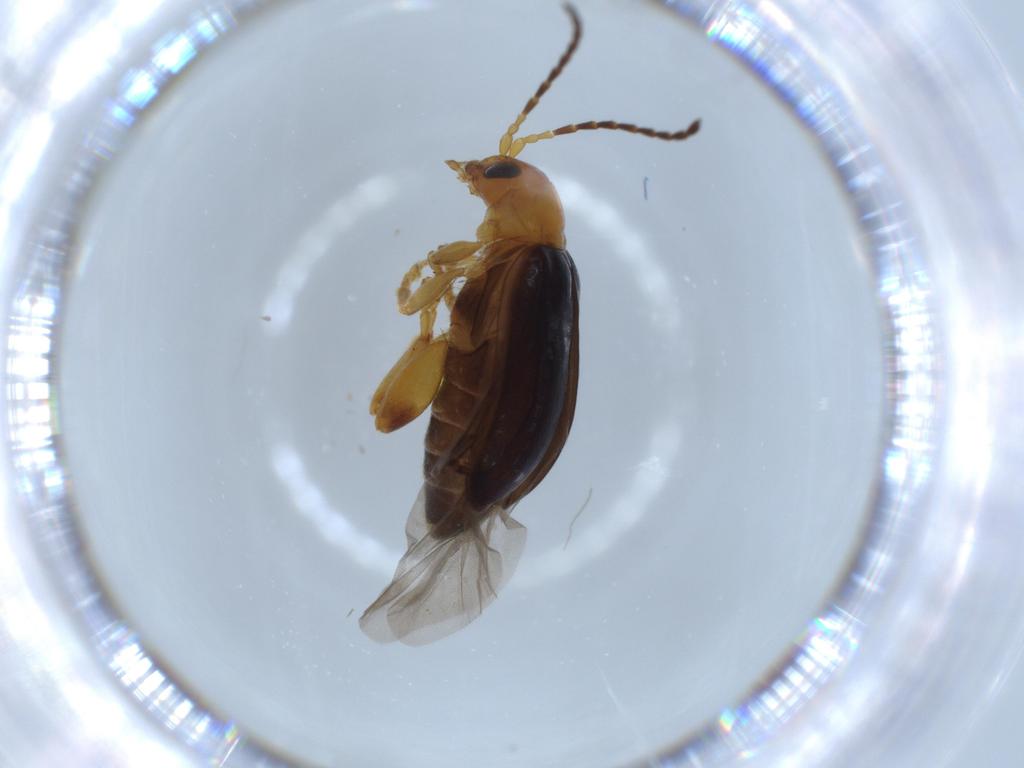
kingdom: Animalia
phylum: Arthropoda
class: Insecta
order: Coleoptera
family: Chrysomelidae
